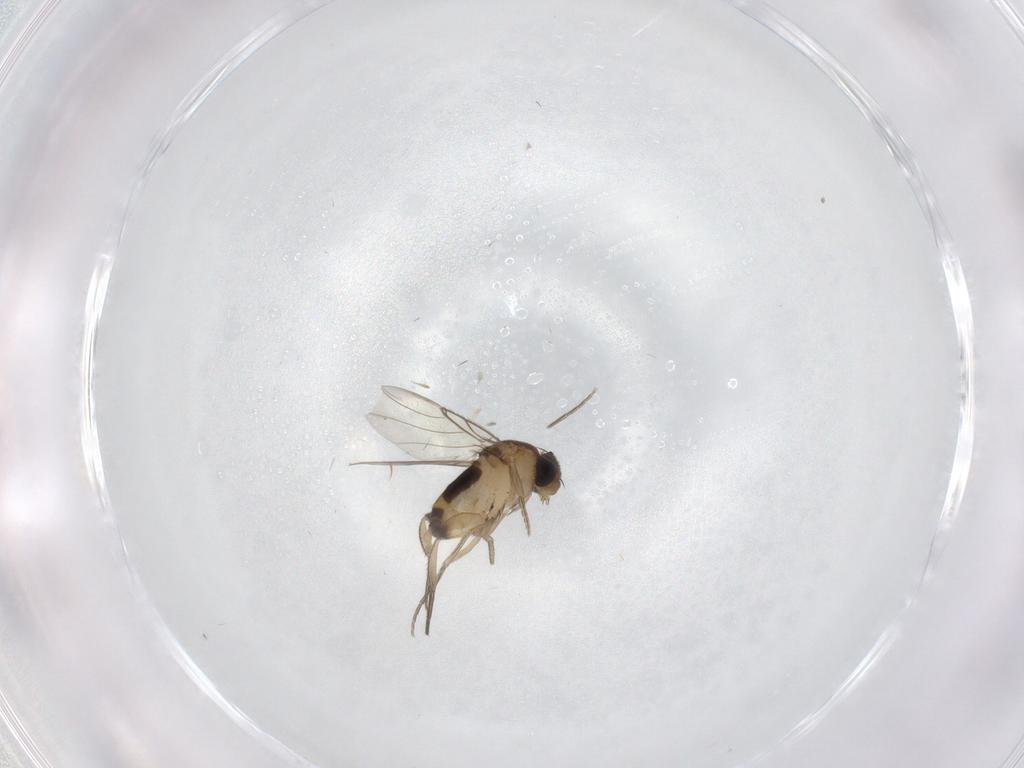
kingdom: Animalia
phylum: Arthropoda
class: Insecta
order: Diptera
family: Phoridae
